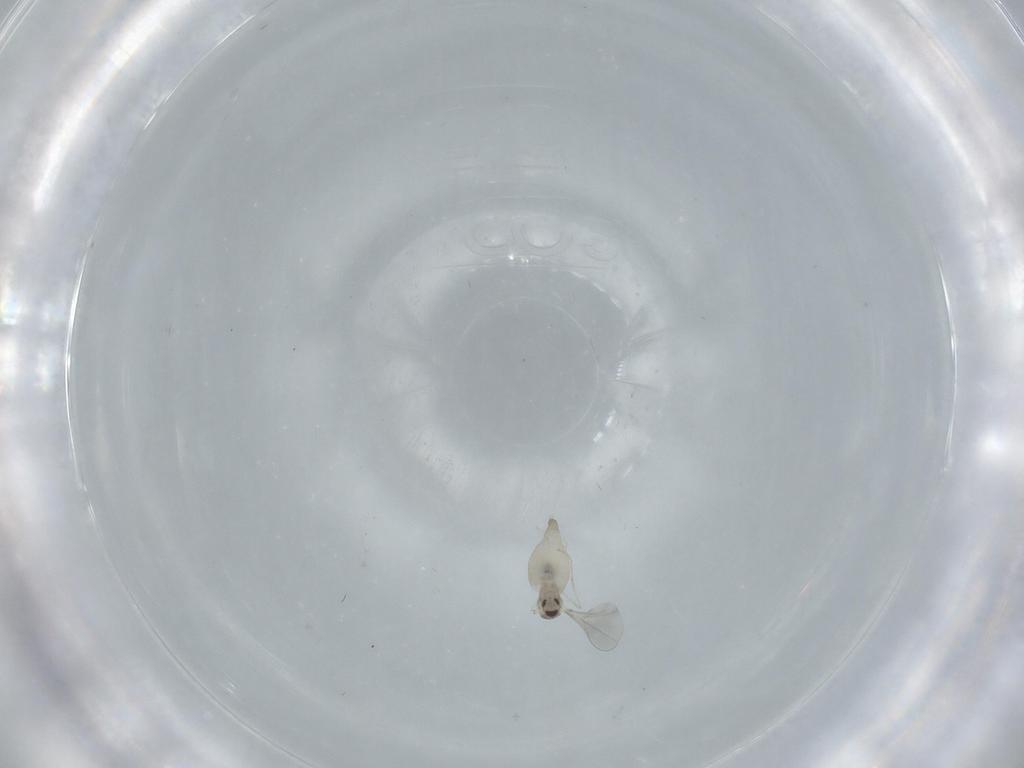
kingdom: Animalia
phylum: Arthropoda
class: Insecta
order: Diptera
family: Cecidomyiidae
